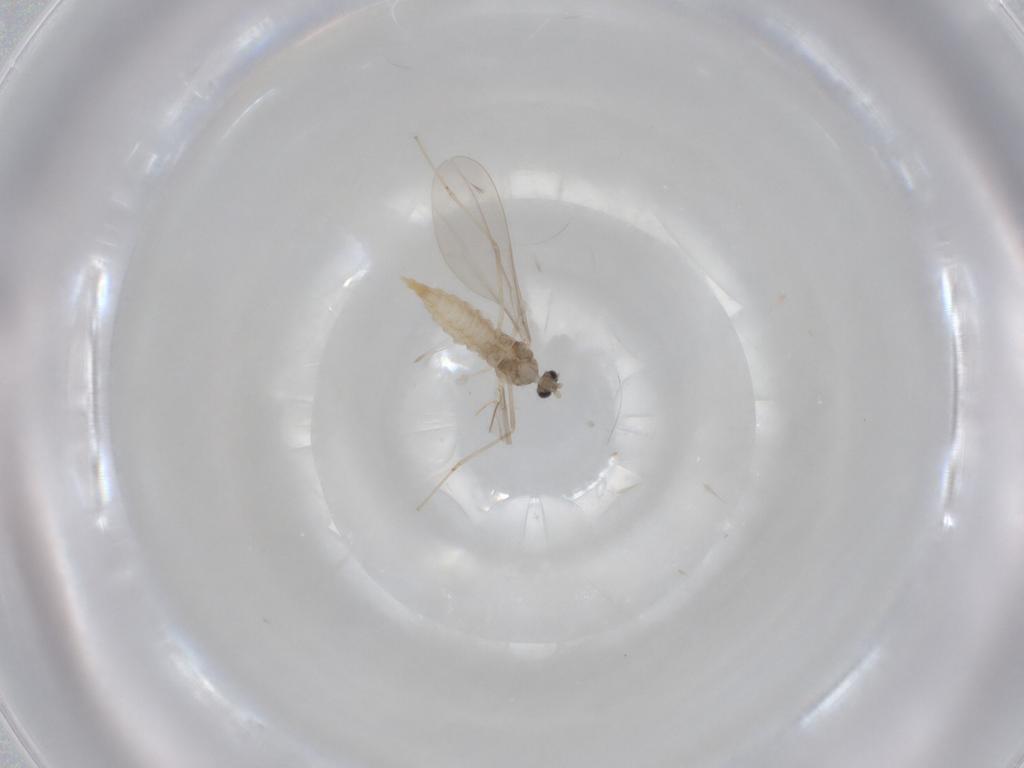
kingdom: Animalia
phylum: Arthropoda
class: Insecta
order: Diptera
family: Cecidomyiidae
